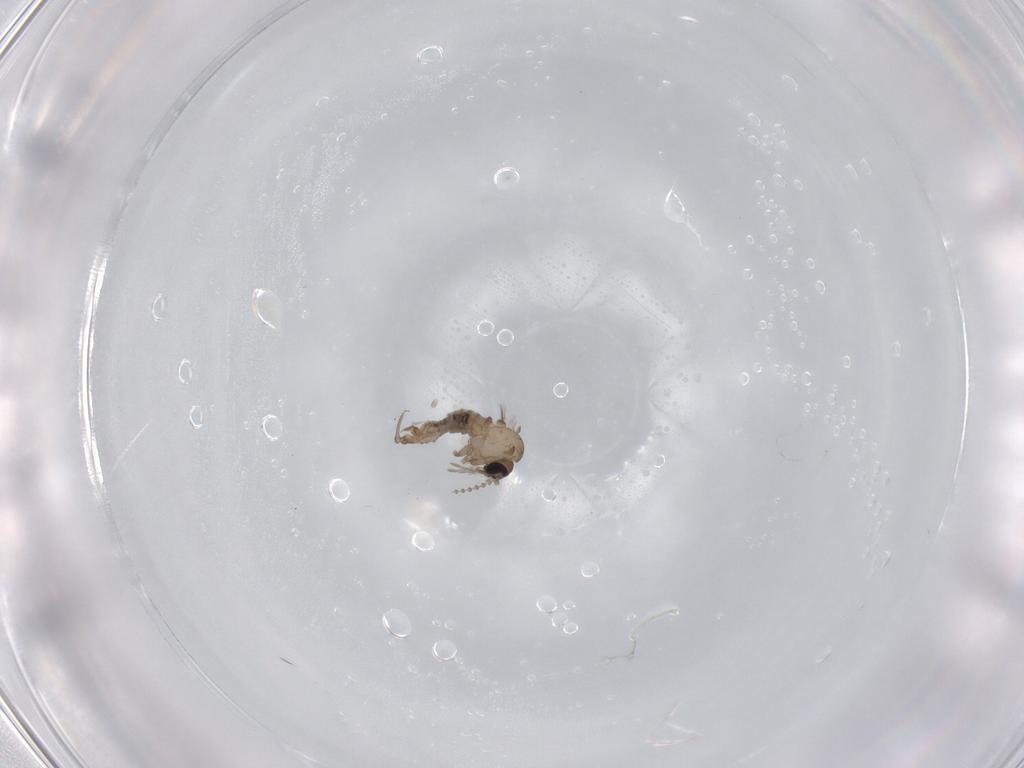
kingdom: Animalia
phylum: Arthropoda
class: Insecta
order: Diptera
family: Psychodidae
